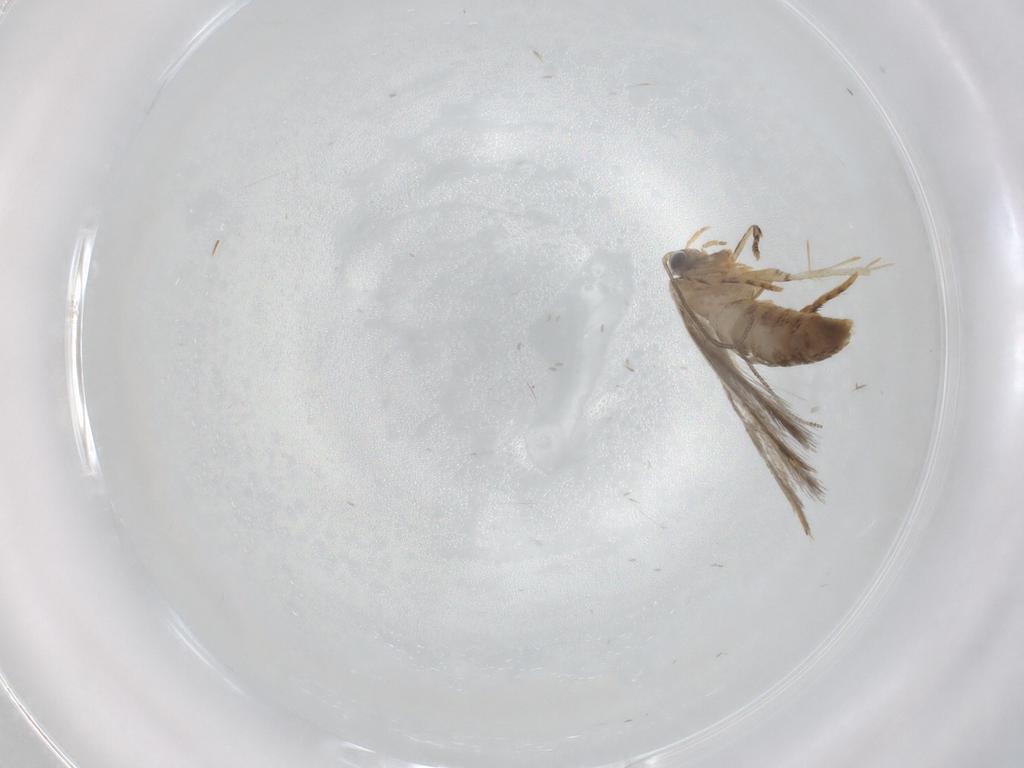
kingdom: Animalia
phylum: Arthropoda
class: Insecta
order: Lepidoptera
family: Tineidae
